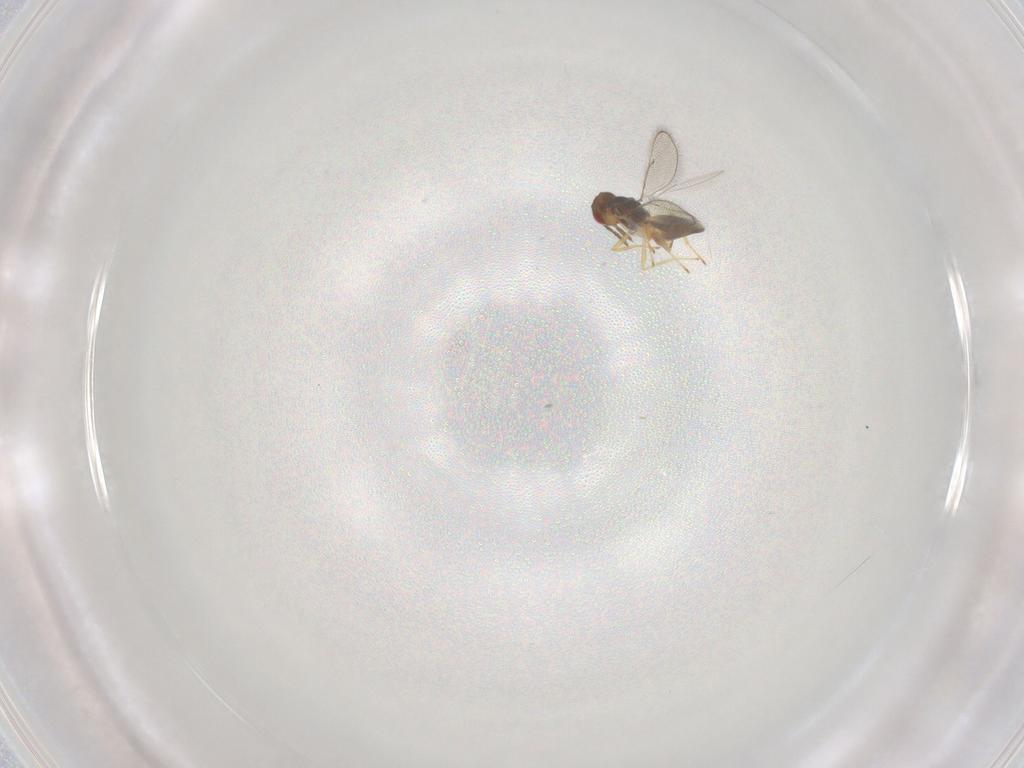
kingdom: Animalia
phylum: Arthropoda
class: Insecta
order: Hymenoptera
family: Eulophidae
